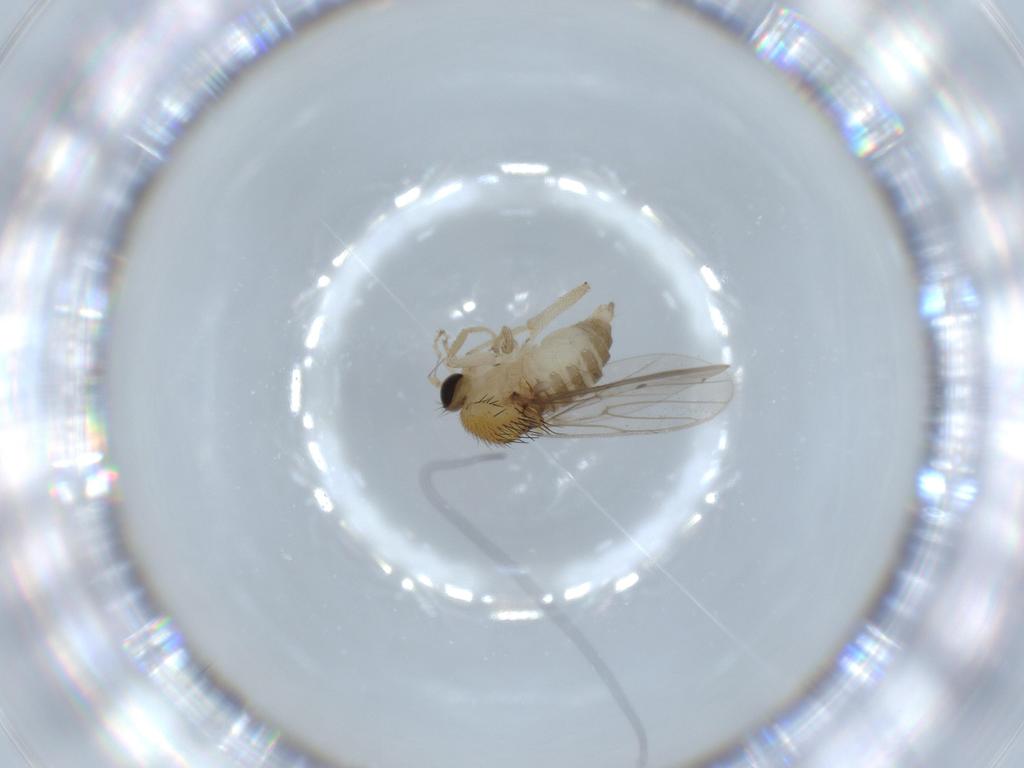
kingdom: Animalia
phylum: Arthropoda
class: Insecta
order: Diptera
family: Hybotidae
